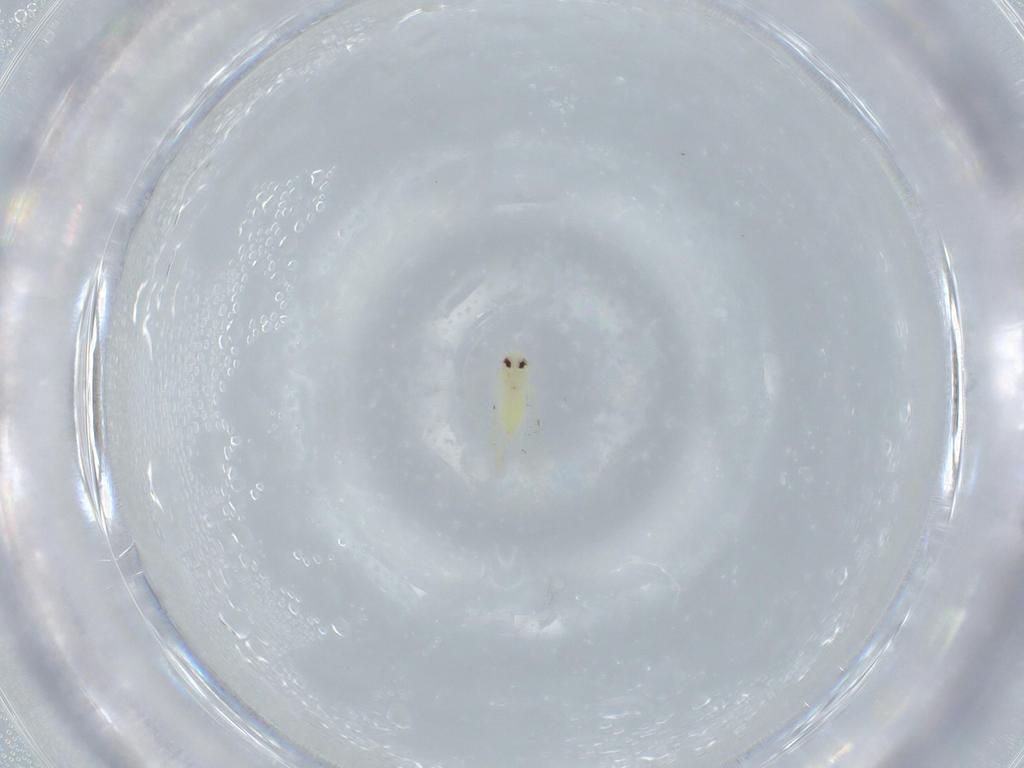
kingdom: Animalia
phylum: Arthropoda
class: Insecta
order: Hemiptera
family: Aleyrodidae
